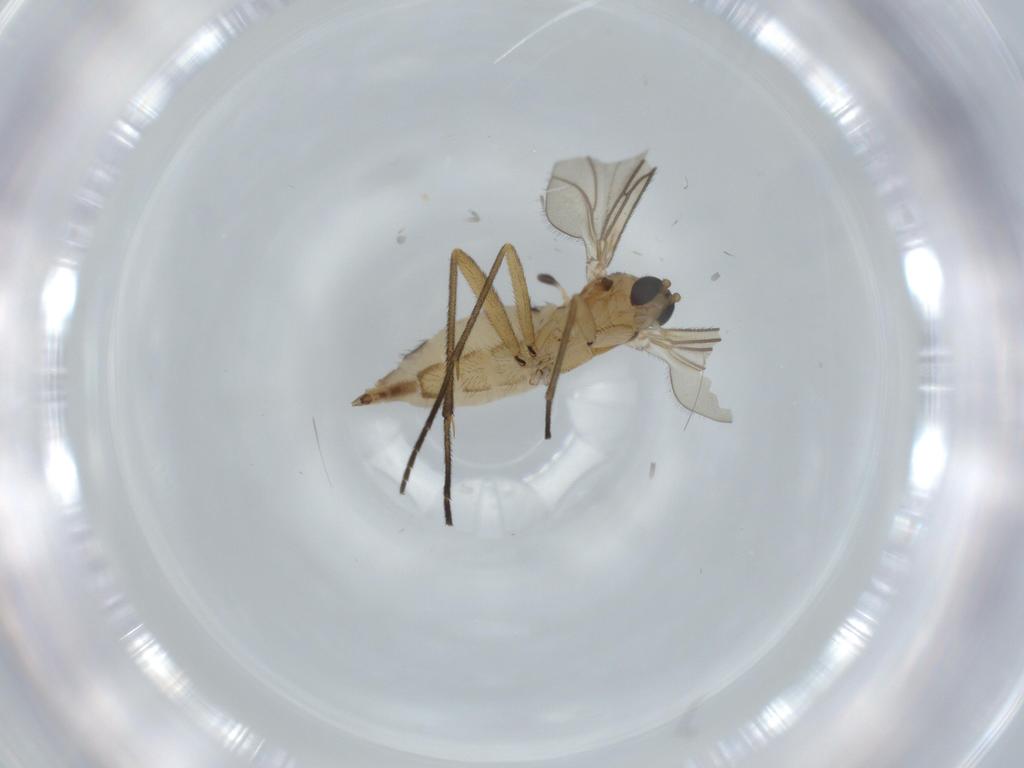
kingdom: Animalia
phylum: Arthropoda
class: Insecta
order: Diptera
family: Sciaridae
